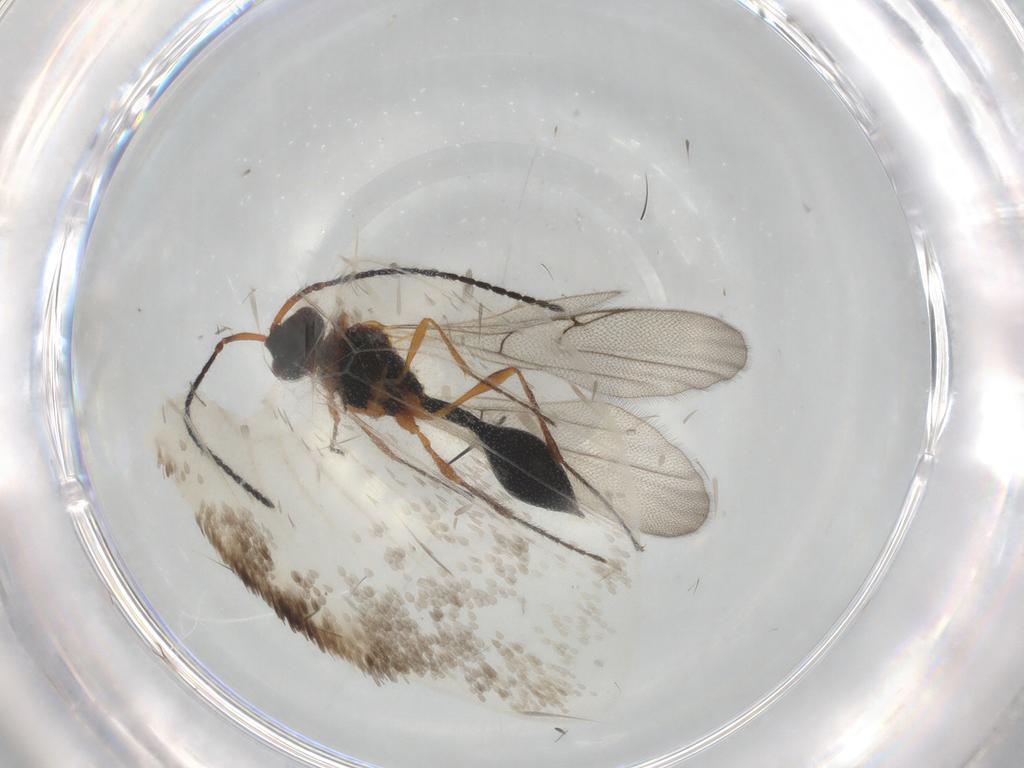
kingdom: Animalia
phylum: Arthropoda
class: Insecta
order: Hymenoptera
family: Diapriidae
